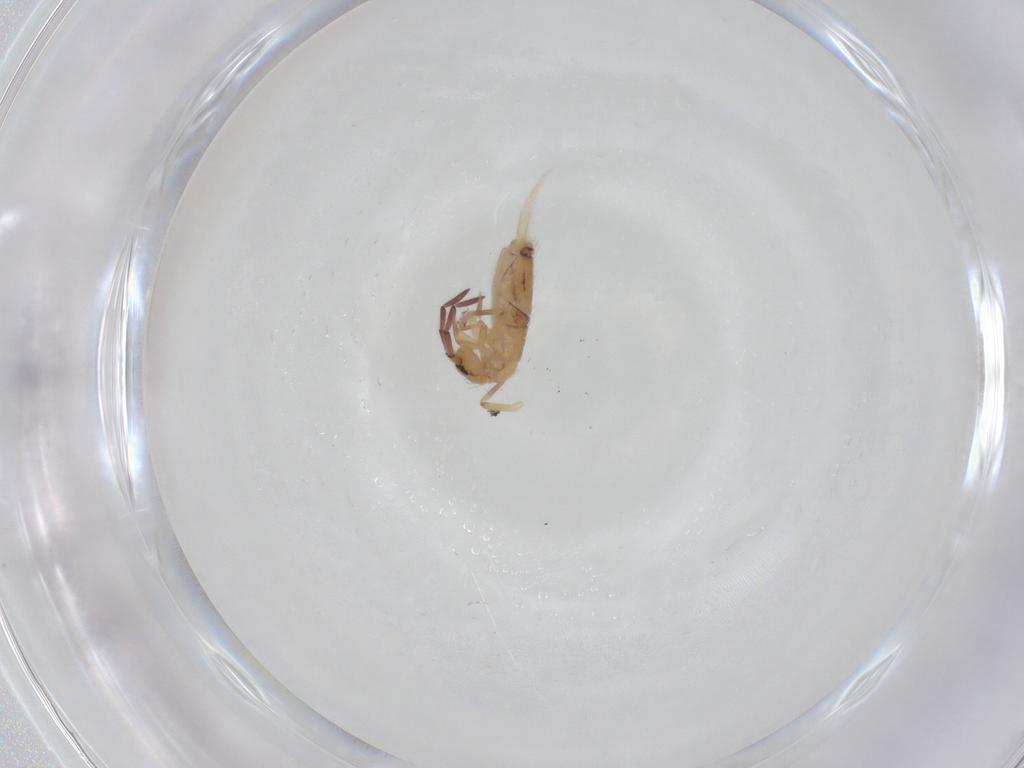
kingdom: Animalia
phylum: Arthropoda
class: Collembola
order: Entomobryomorpha
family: Entomobryidae
